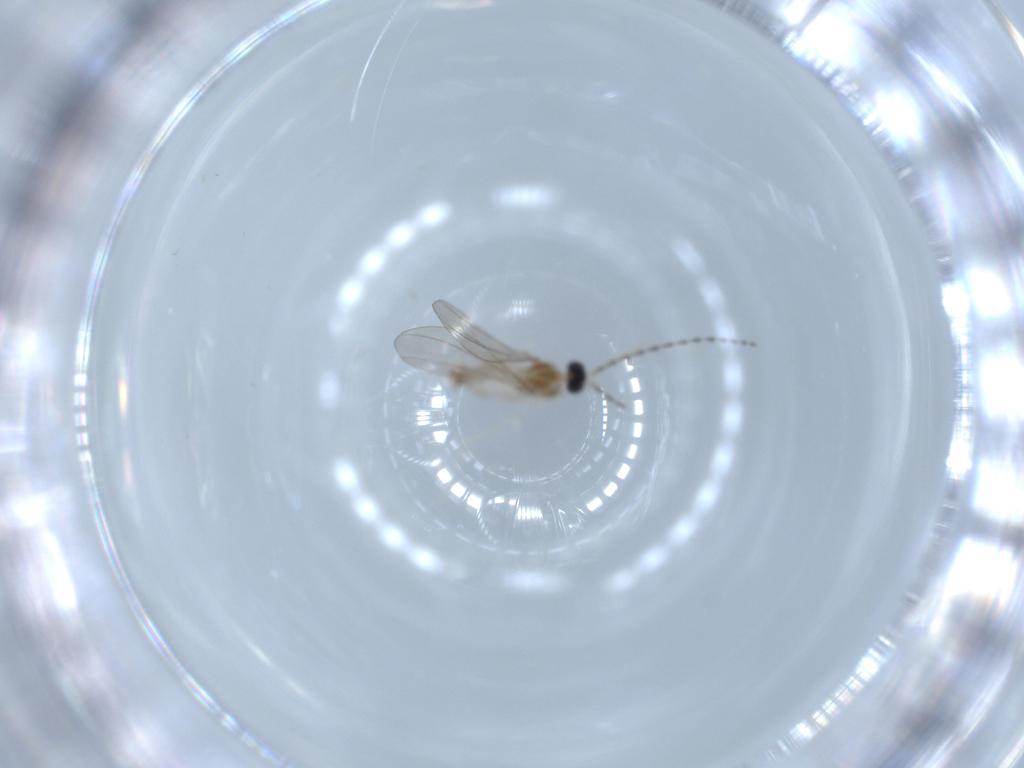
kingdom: Animalia
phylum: Arthropoda
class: Insecta
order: Diptera
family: Cecidomyiidae
